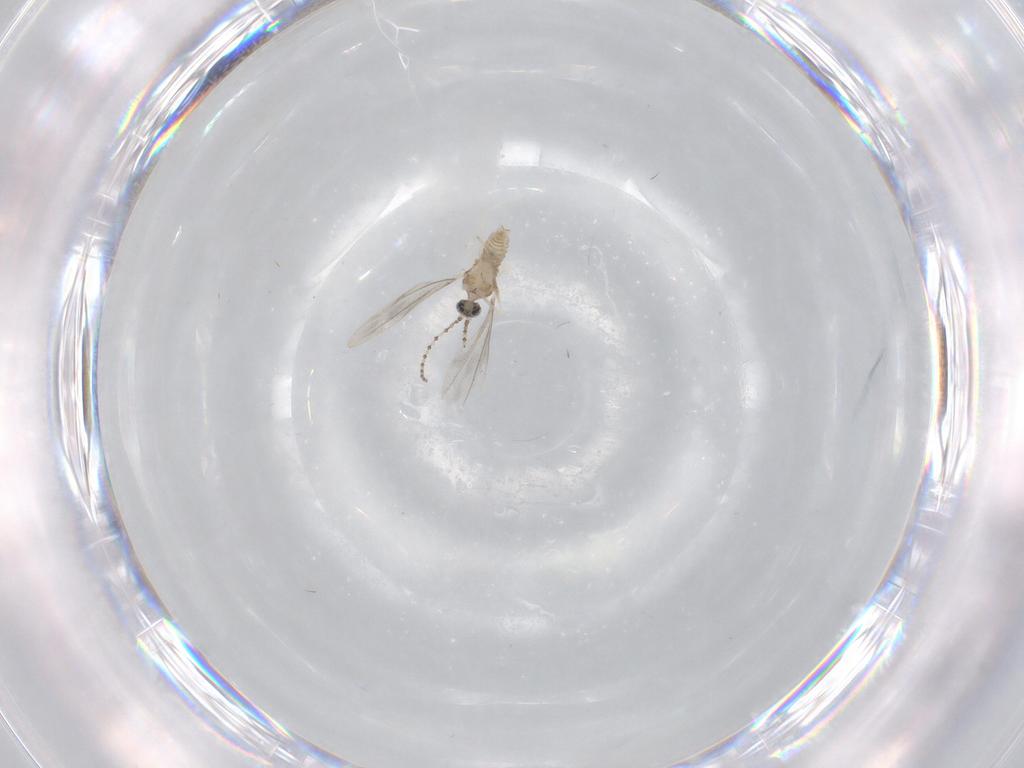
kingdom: Animalia
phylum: Arthropoda
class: Insecta
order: Diptera
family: Cecidomyiidae
